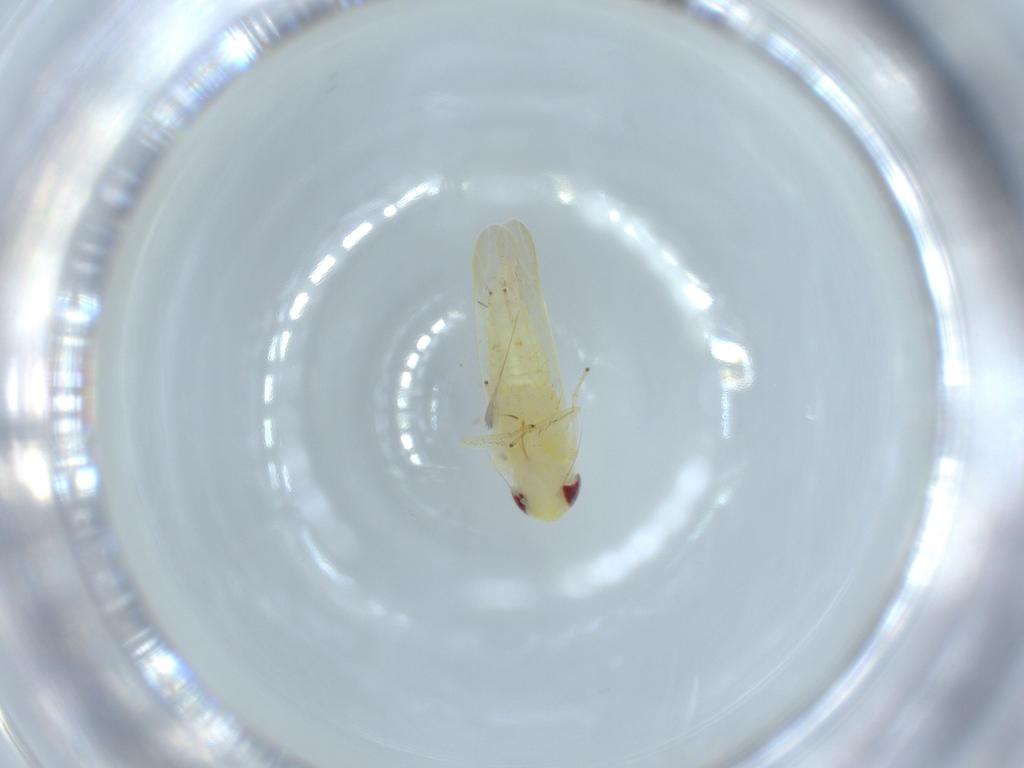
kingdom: Animalia
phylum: Arthropoda
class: Insecta
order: Hemiptera
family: Cicadellidae
